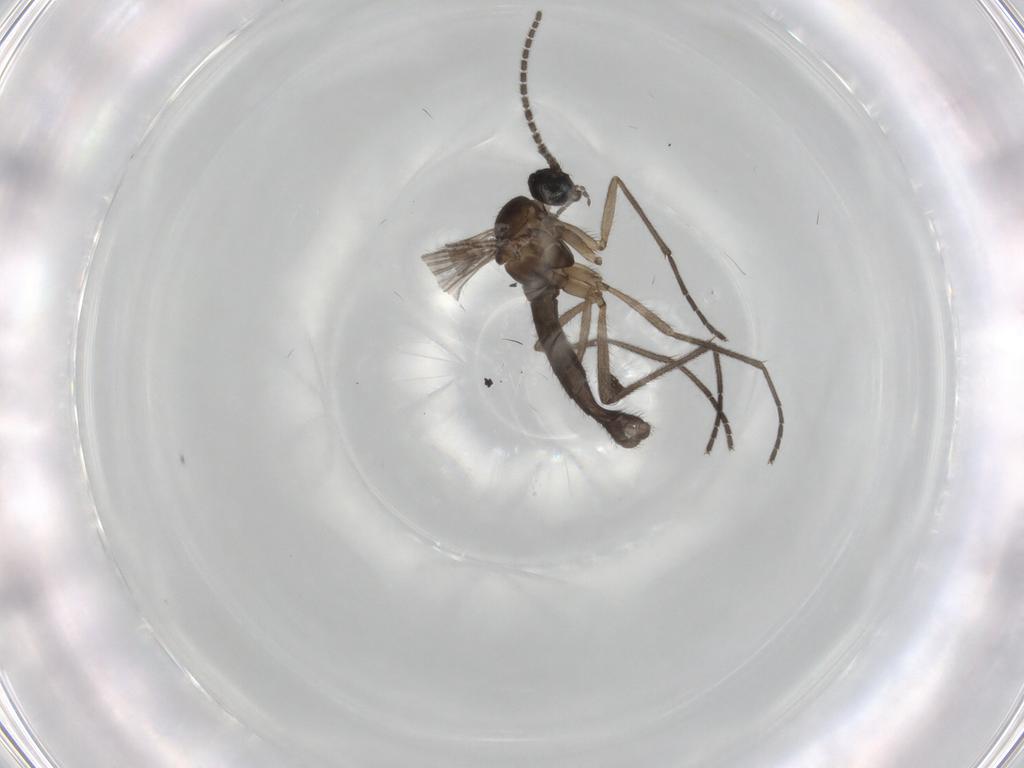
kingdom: Animalia
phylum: Arthropoda
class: Insecta
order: Diptera
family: Sciaridae
